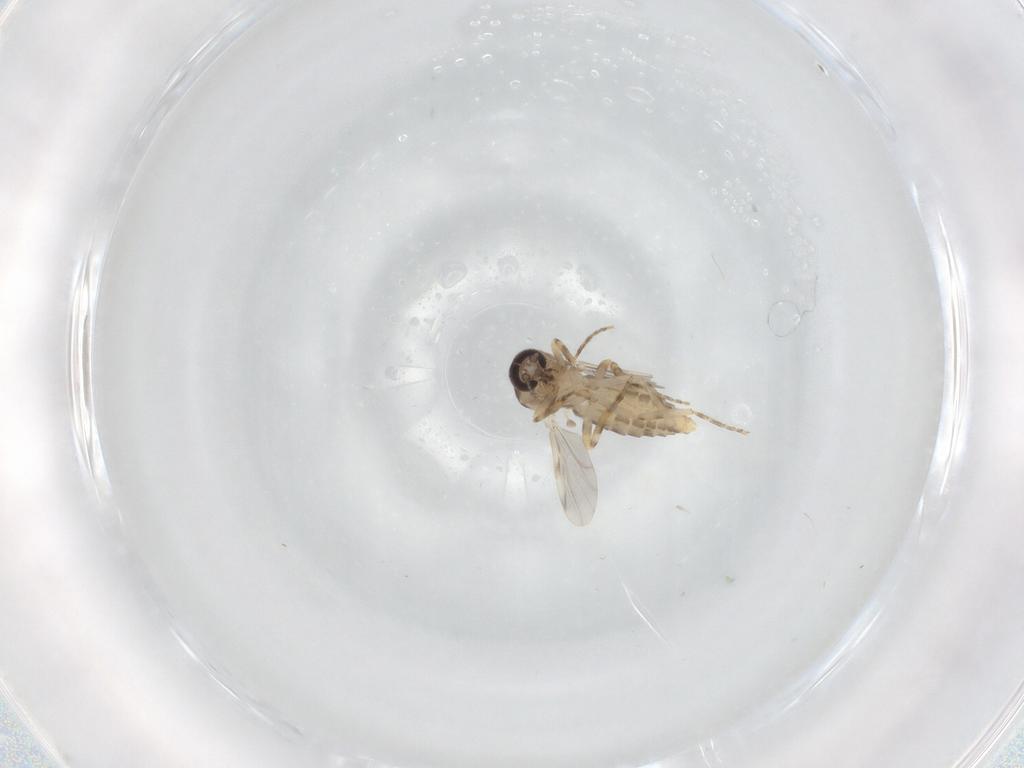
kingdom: Animalia
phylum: Arthropoda
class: Insecta
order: Diptera
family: Ceratopogonidae
